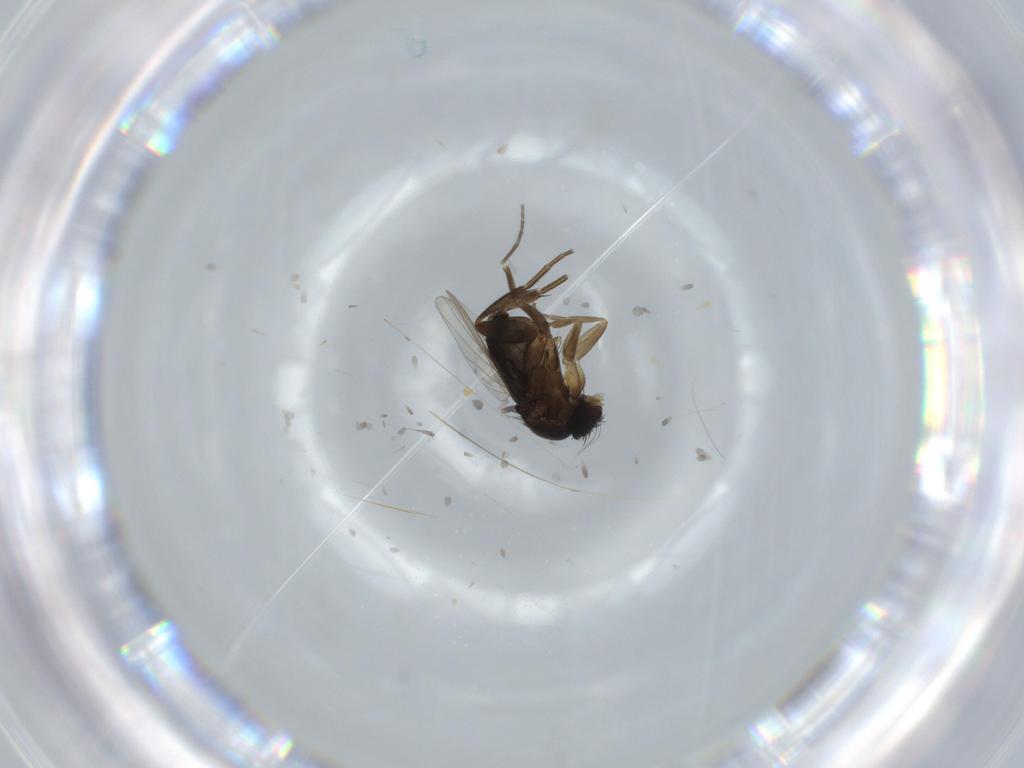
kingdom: Animalia
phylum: Arthropoda
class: Insecta
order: Diptera
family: Phoridae
